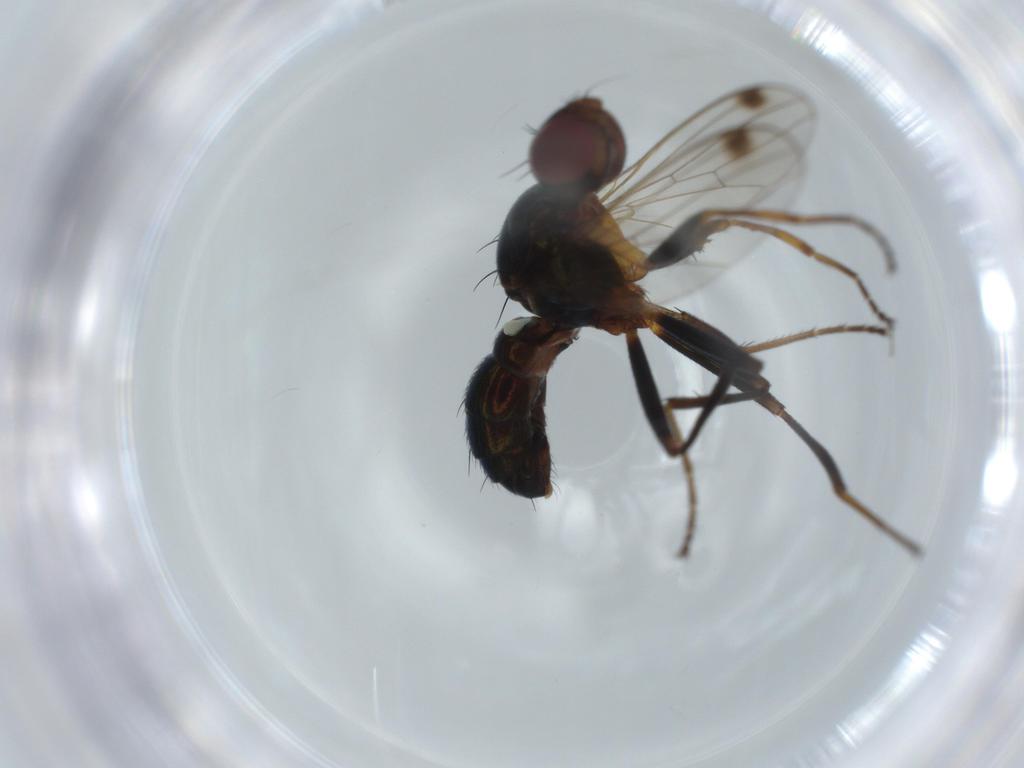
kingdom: Animalia
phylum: Arthropoda
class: Insecta
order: Diptera
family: Sepsidae
